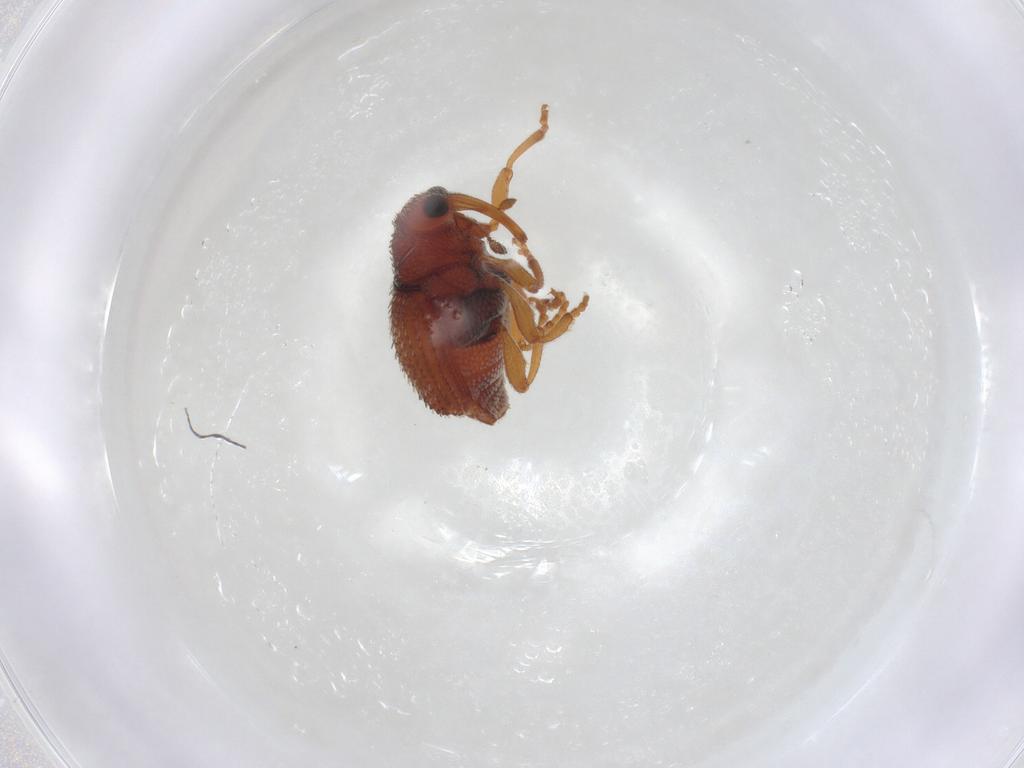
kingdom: Animalia
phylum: Arthropoda
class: Insecta
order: Coleoptera
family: Curculionidae
